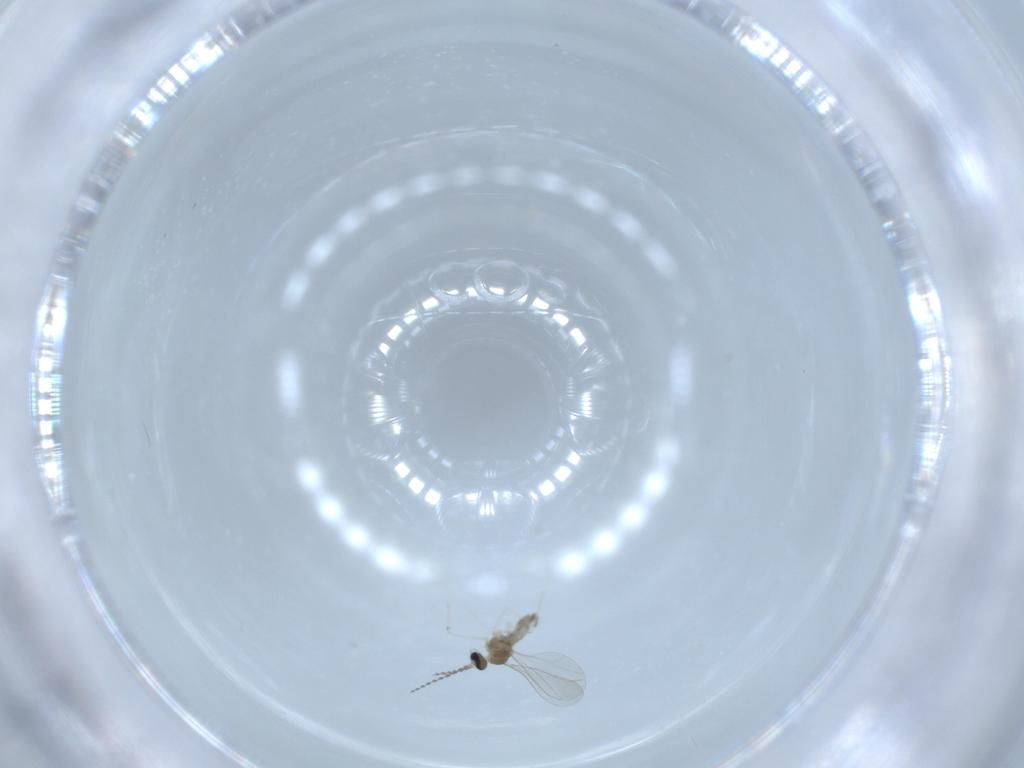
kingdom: Animalia
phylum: Arthropoda
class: Insecta
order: Diptera
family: Cecidomyiidae
